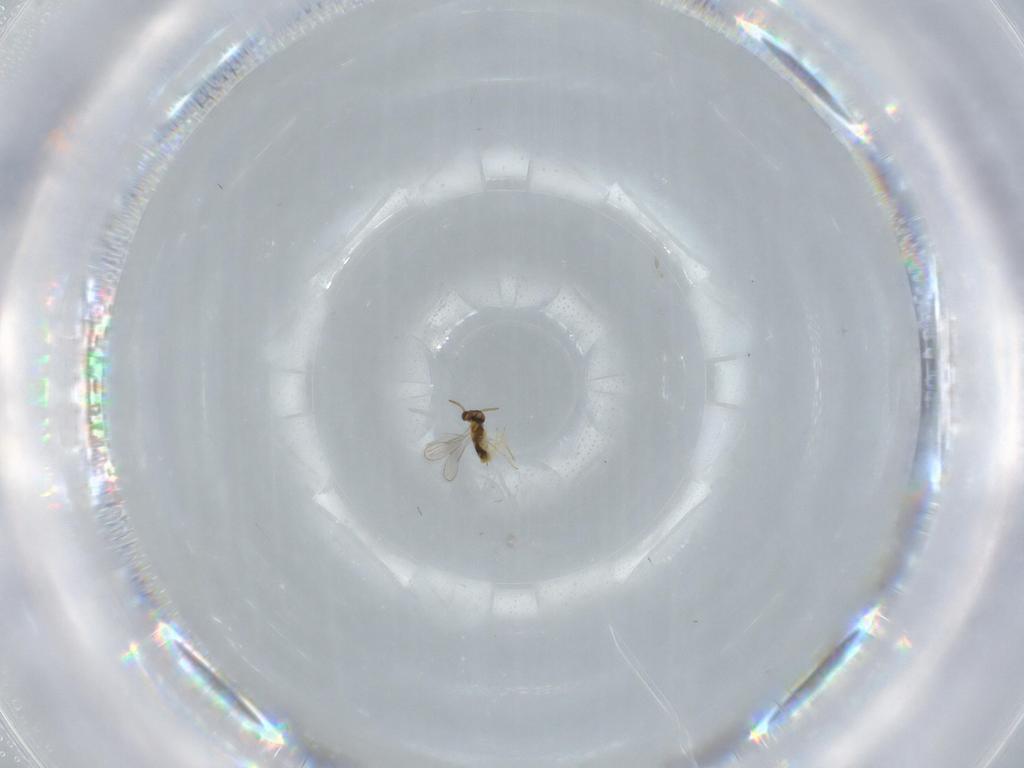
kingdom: Animalia
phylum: Arthropoda
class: Insecta
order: Hymenoptera
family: Aphelinidae
